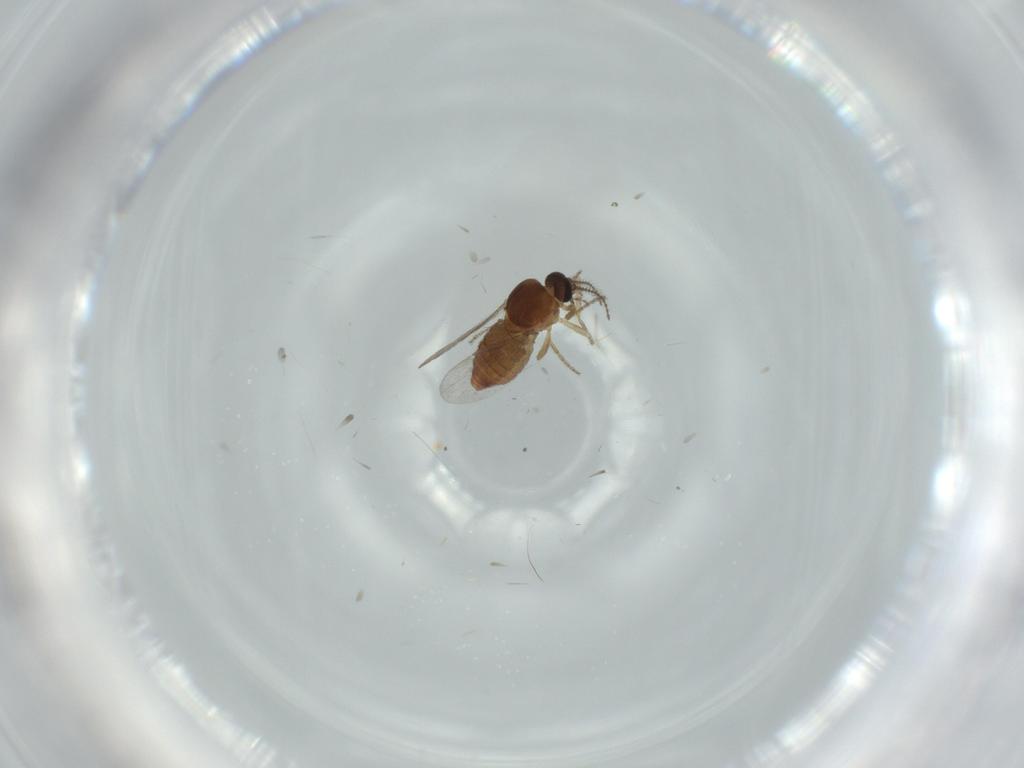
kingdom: Animalia
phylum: Arthropoda
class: Insecta
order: Diptera
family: Ceratopogonidae
